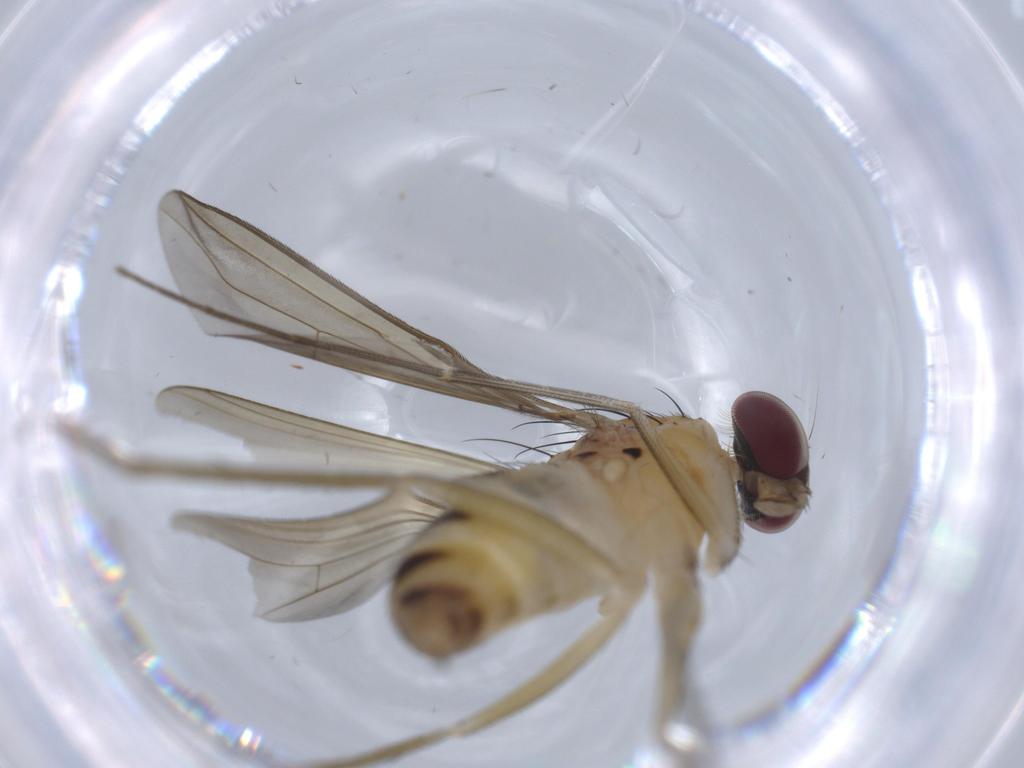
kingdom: Animalia
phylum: Arthropoda
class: Insecta
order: Diptera
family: Dolichopodidae
